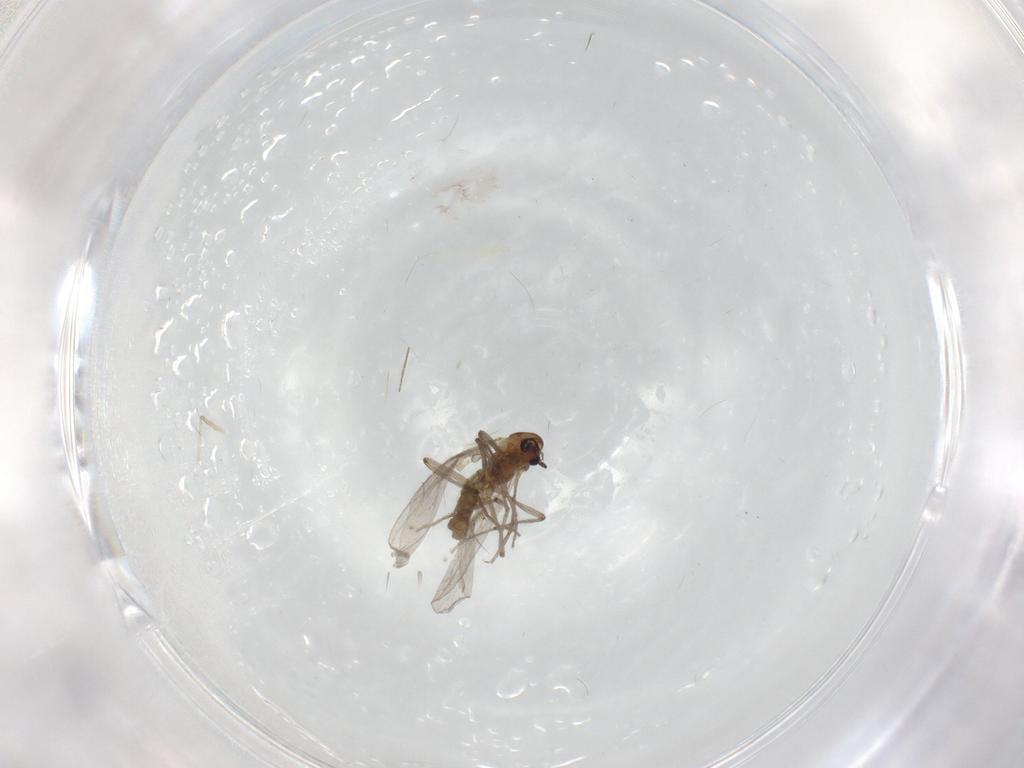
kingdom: Animalia
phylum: Arthropoda
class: Insecta
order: Diptera
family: Chironomidae
